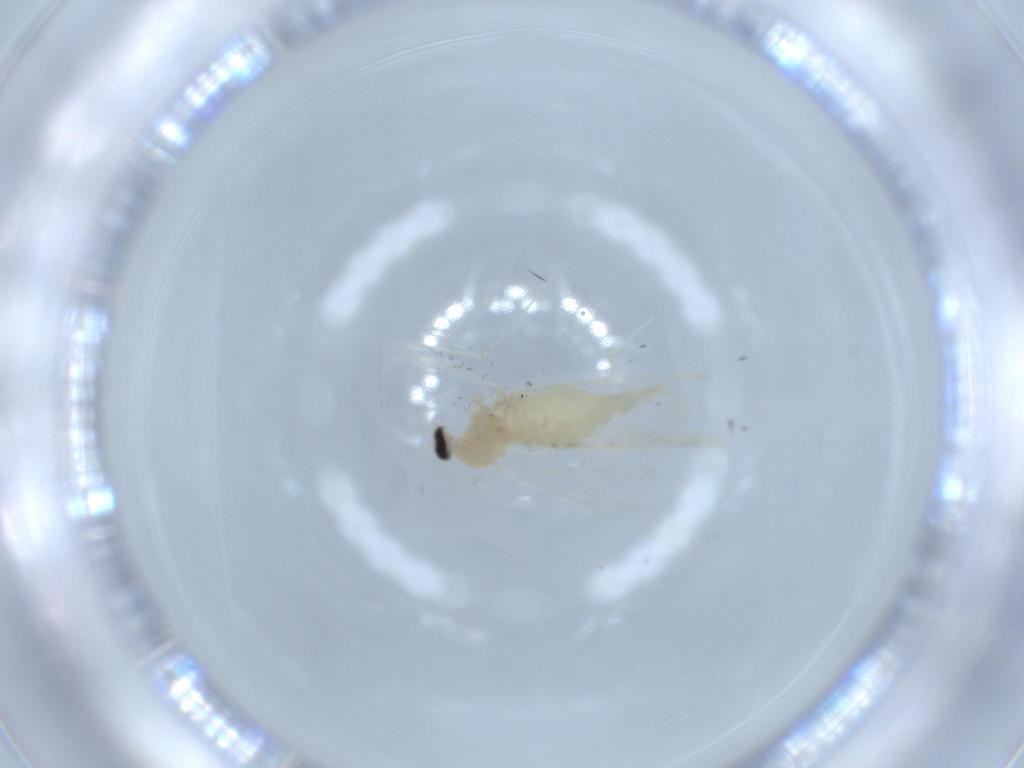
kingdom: Animalia
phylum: Arthropoda
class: Insecta
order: Diptera
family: Cecidomyiidae
